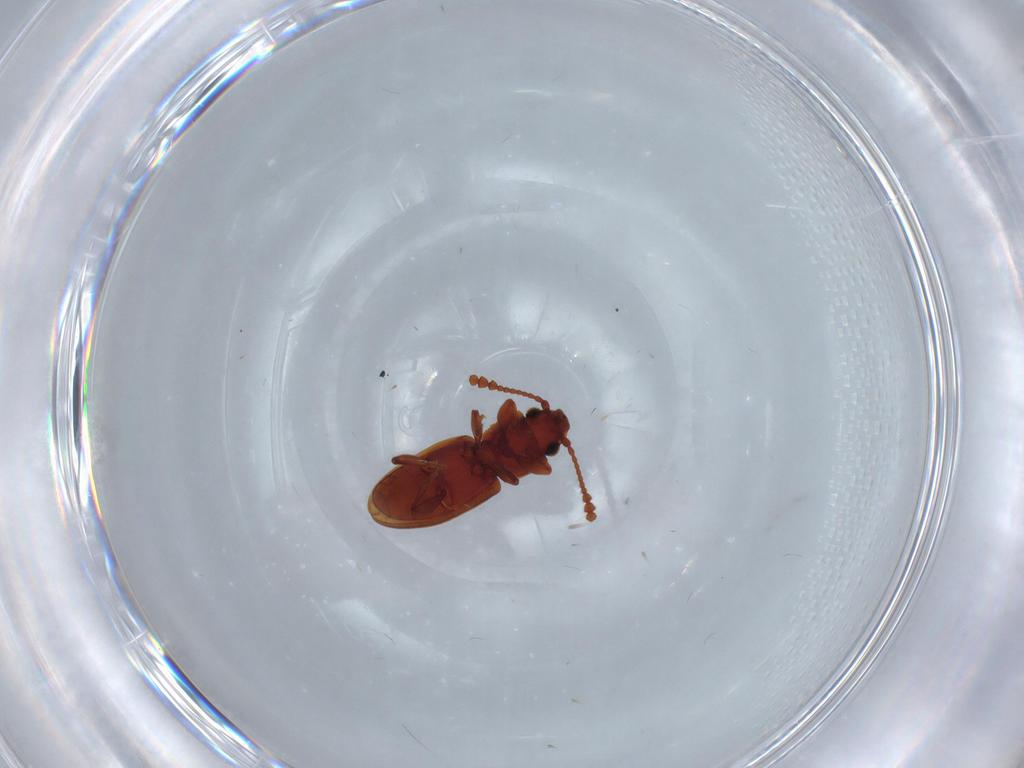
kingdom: Animalia
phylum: Arthropoda
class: Insecta
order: Coleoptera
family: Silvanidae
